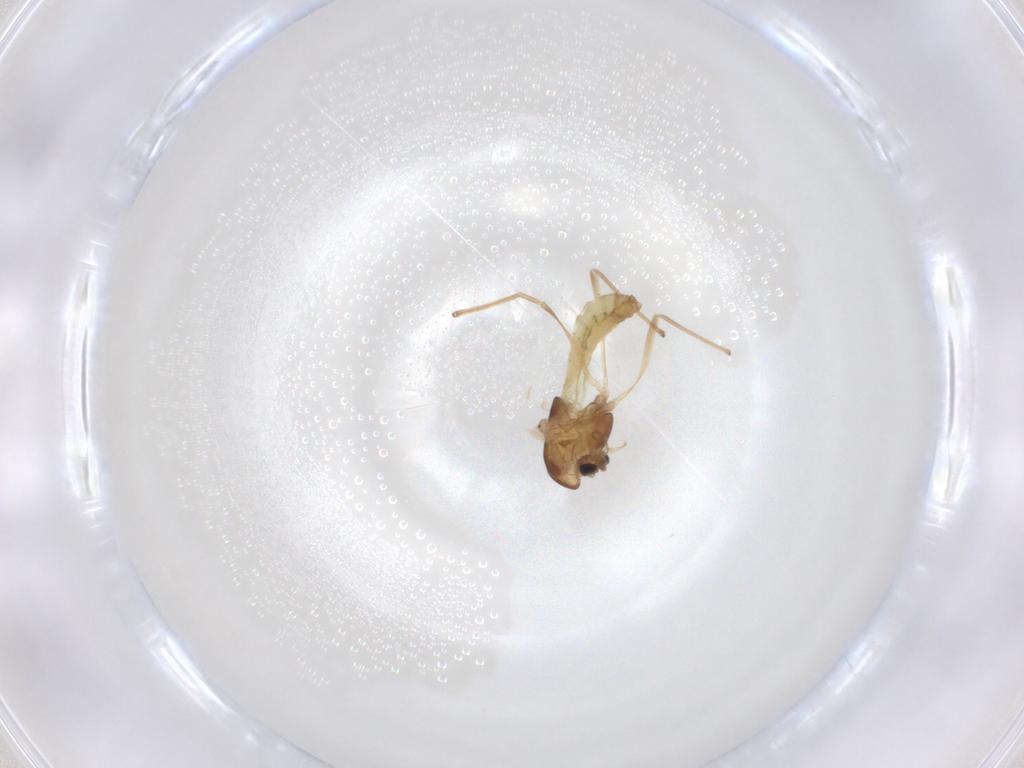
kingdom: Animalia
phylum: Arthropoda
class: Insecta
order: Diptera
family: Chironomidae
